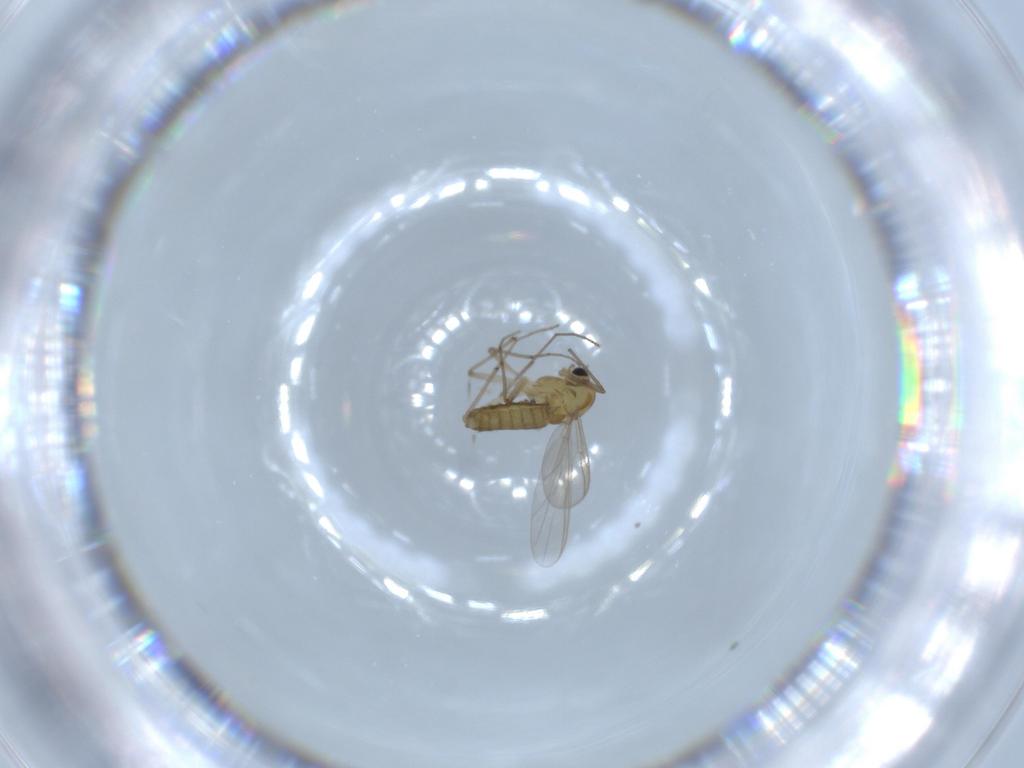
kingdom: Animalia
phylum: Arthropoda
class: Insecta
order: Diptera
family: Chironomidae
